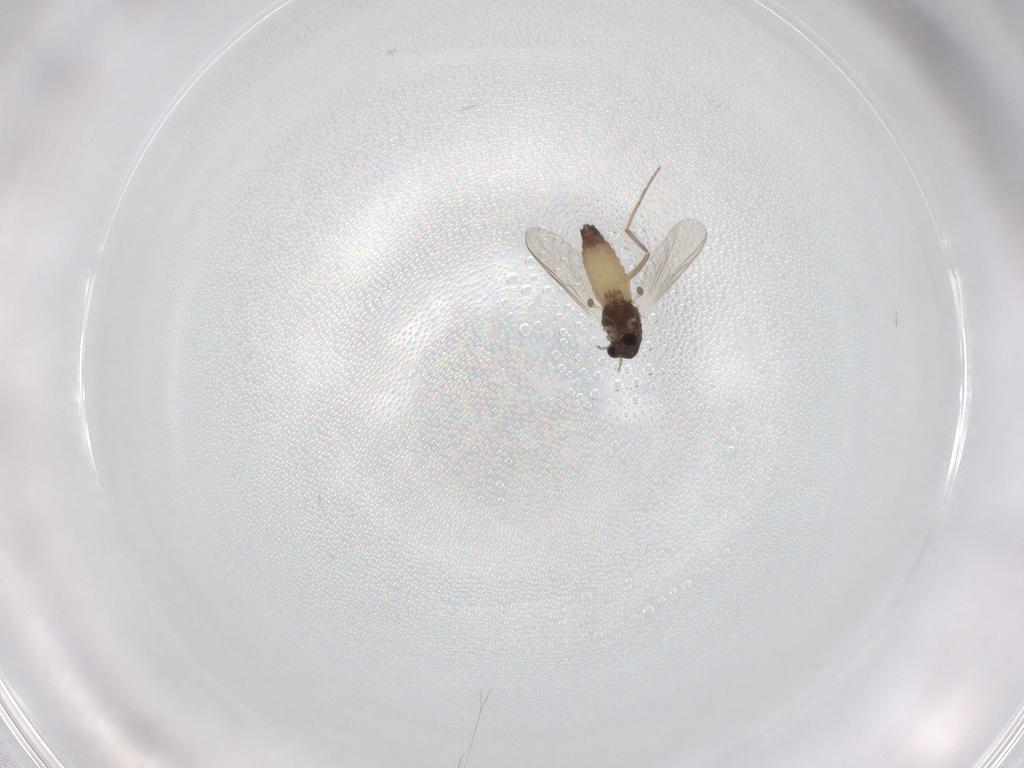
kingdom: Animalia
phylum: Arthropoda
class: Insecta
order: Diptera
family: Chironomidae
